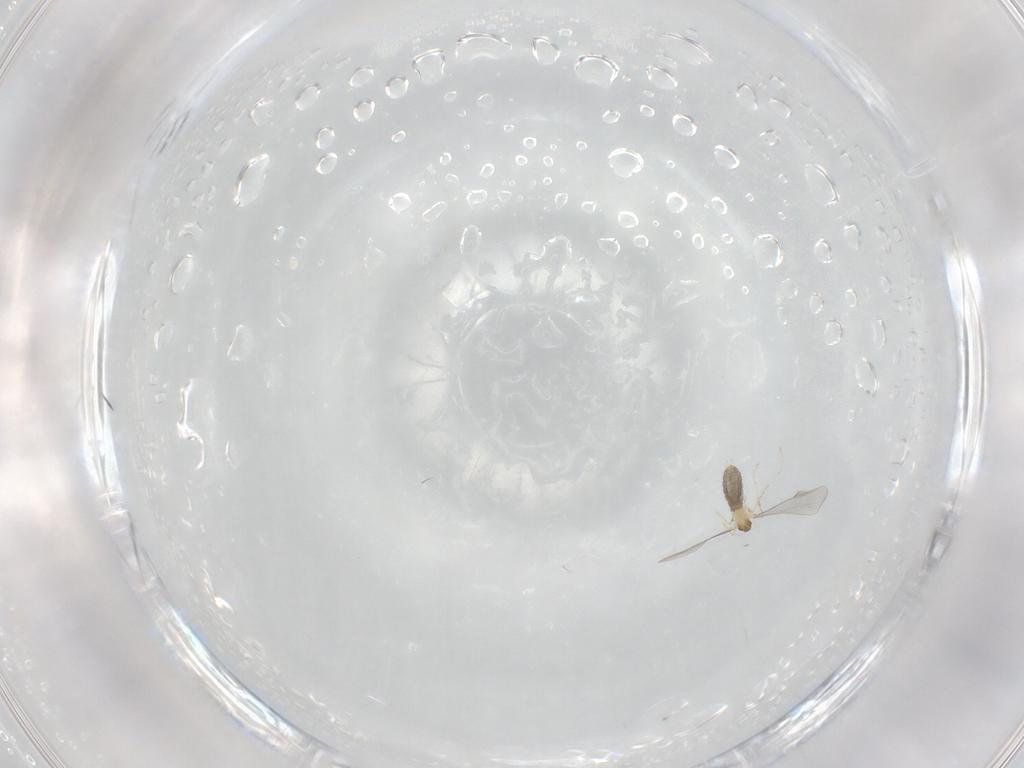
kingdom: Animalia
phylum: Arthropoda
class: Insecta
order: Diptera
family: Cecidomyiidae
